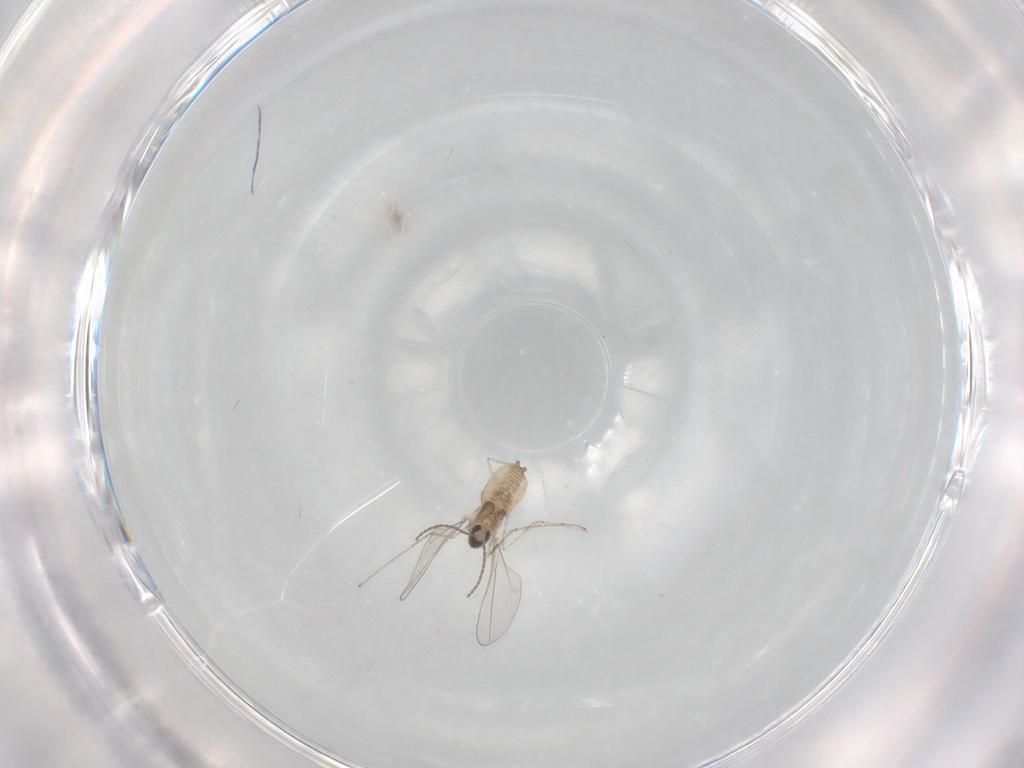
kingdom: Animalia
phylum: Arthropoda
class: Insecta
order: Diptera
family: Cecidomyiidae
